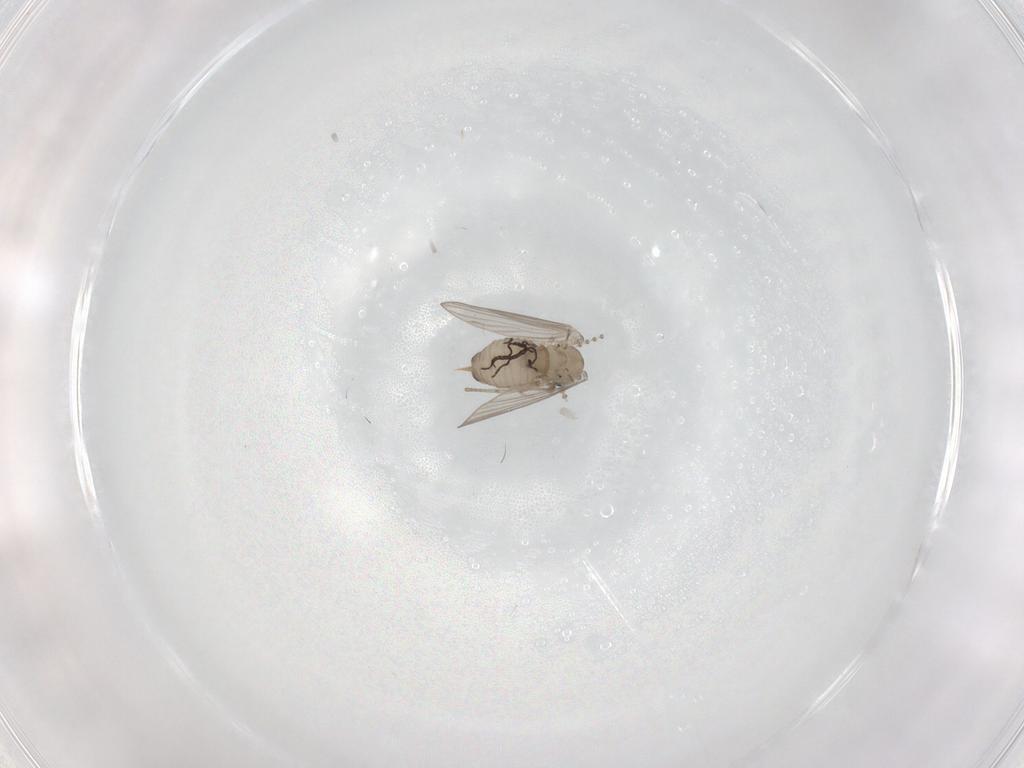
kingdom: Animalia
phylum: Arthropoda
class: Insecta
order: Diptera
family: Psychodidae
